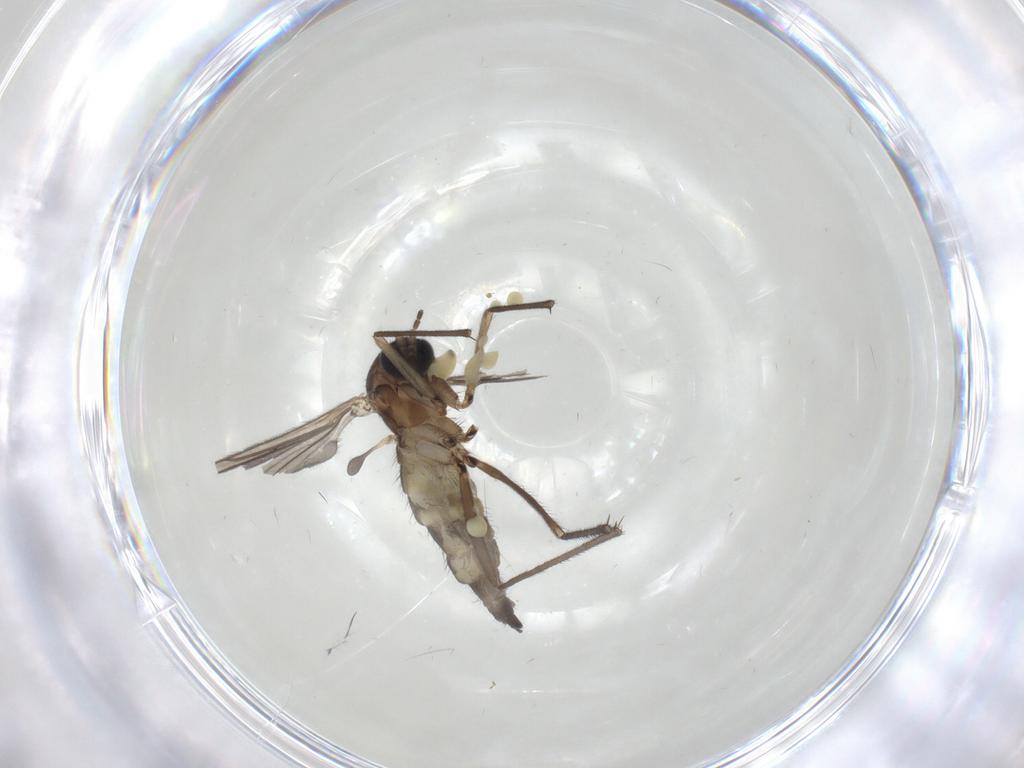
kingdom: Animalia
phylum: Arthropoda
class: Insecta
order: Diptera
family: Sciaridae
